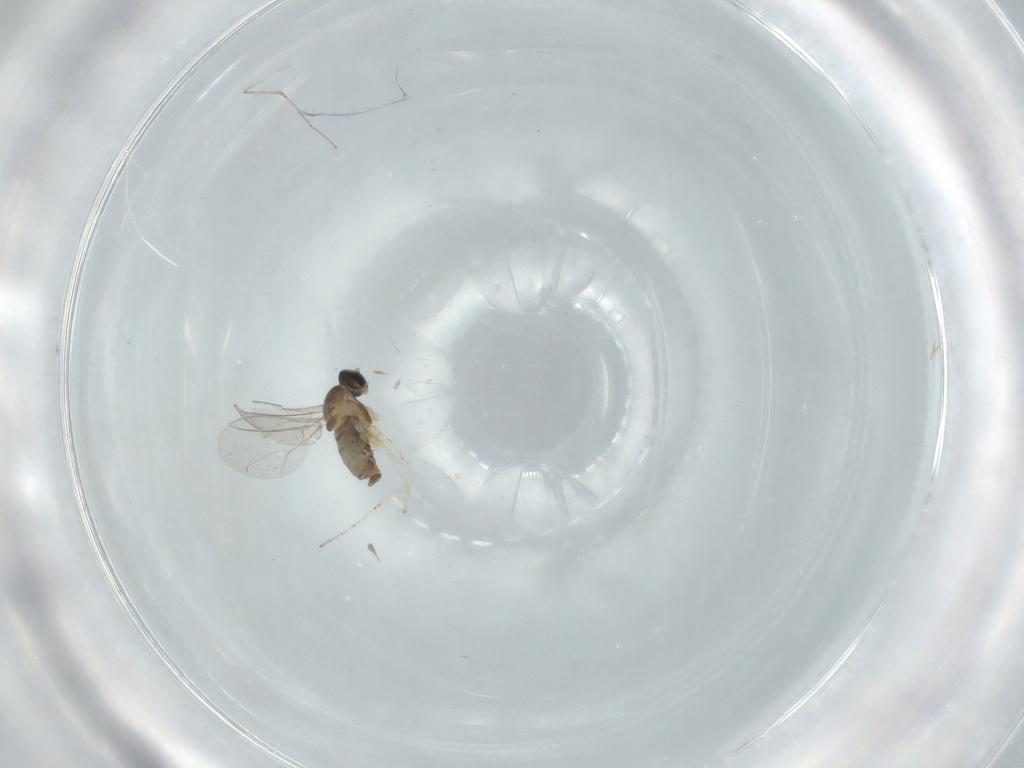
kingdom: Animalia
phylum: Arthropoda
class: Insecta
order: Diptera
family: Cecidomyiidae
